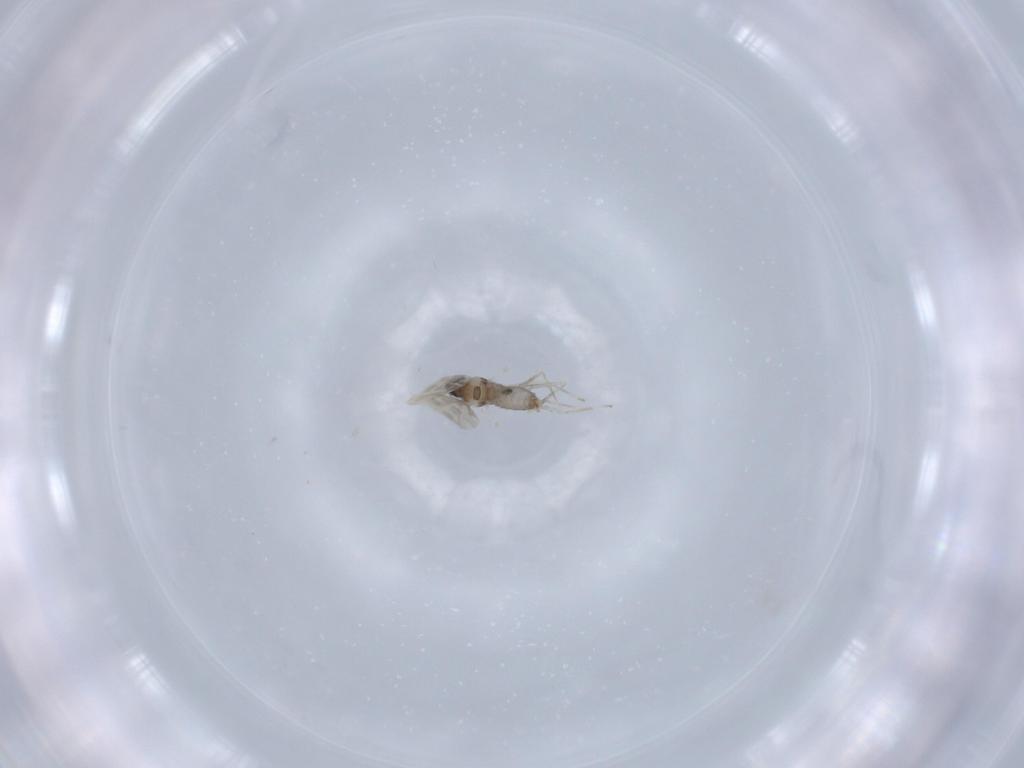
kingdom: Animalia
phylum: Arthropoda
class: Insecta
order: Diptera
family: Cecidomyiidae
